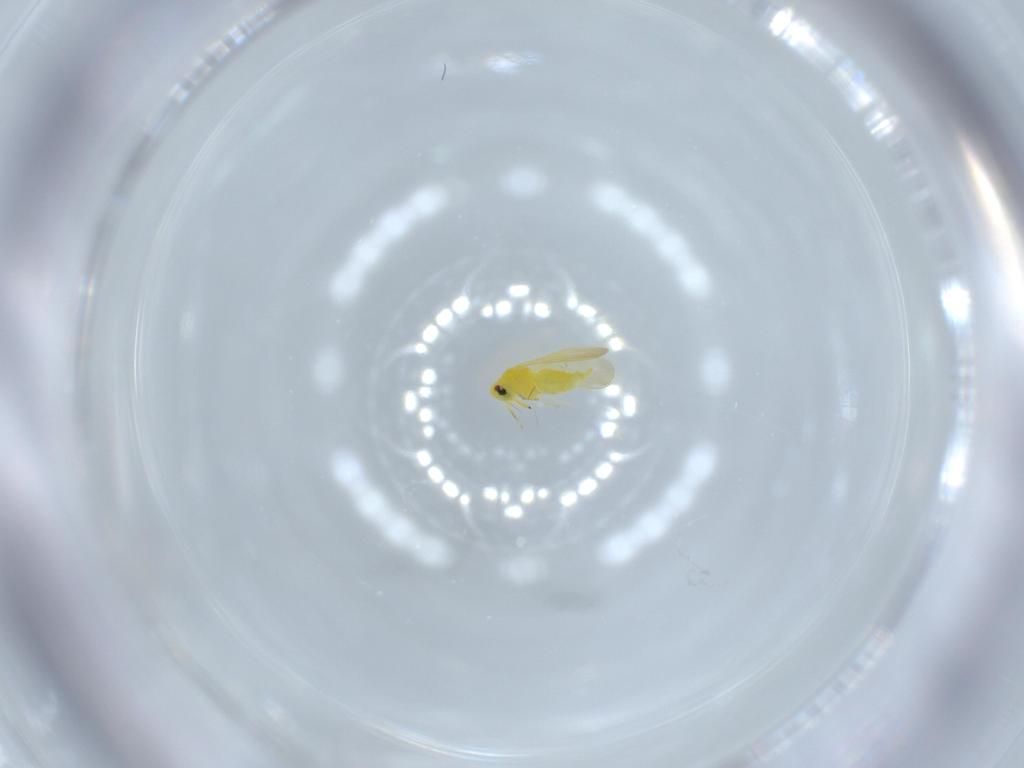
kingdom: Animalia
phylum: Arthropoda
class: Insecta
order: Hemiptera
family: Aleyrodidae
